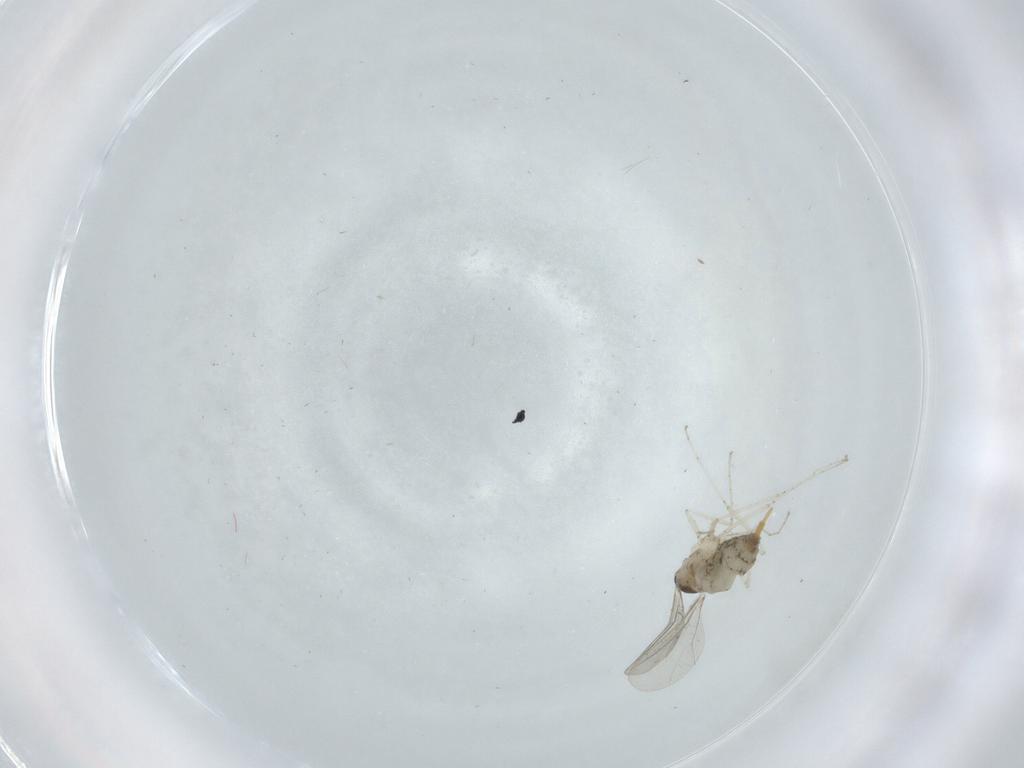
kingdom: Animalia
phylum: Arthropoda
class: Insecta
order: Diptera
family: Cecidomyiidae
